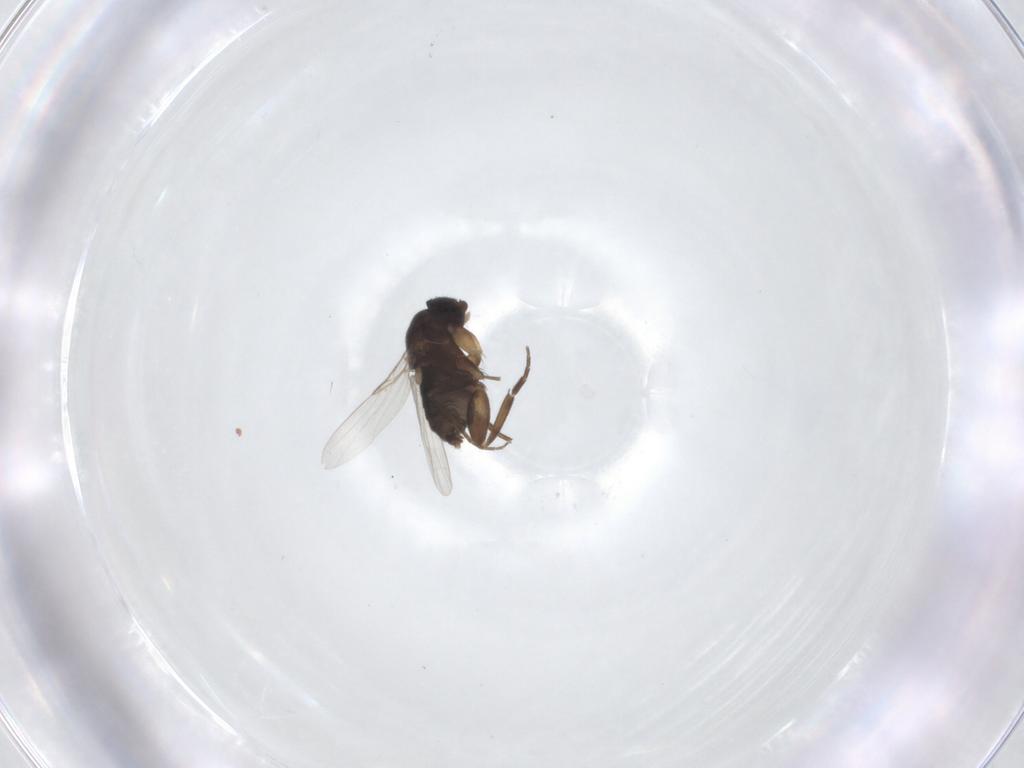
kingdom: Animalia
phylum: Arthropoda
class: Insecta
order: Diptera
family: Phoridae
